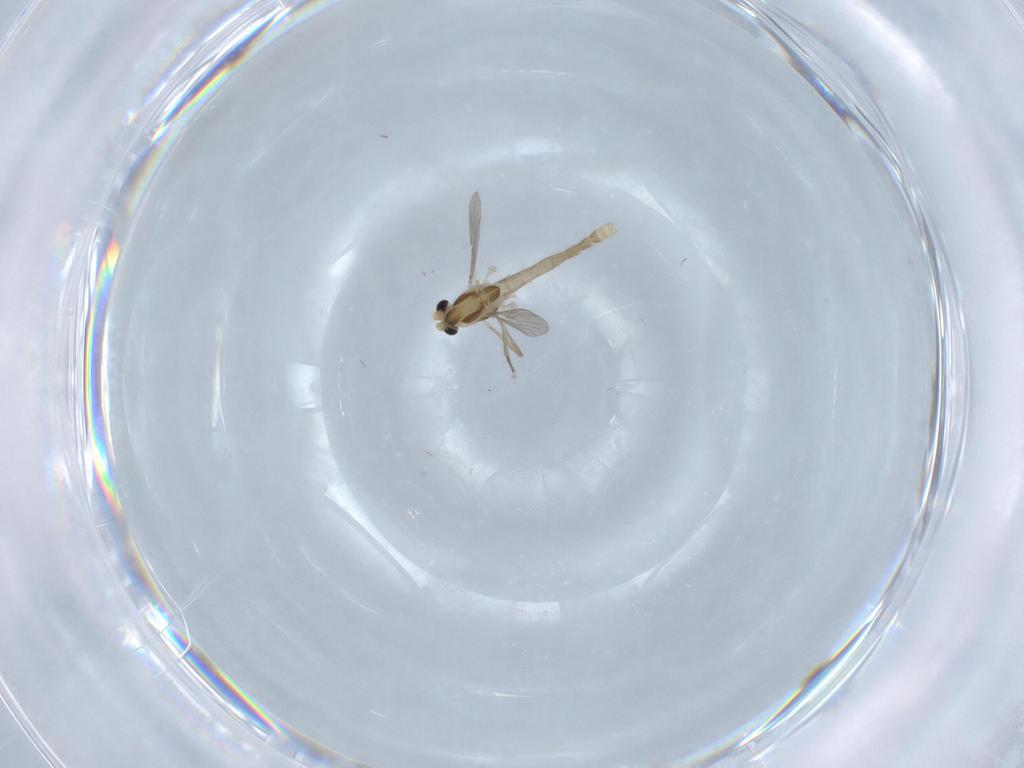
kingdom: Animalia
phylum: Arthropoda
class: Insecta
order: Diptera
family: Chironomidae
